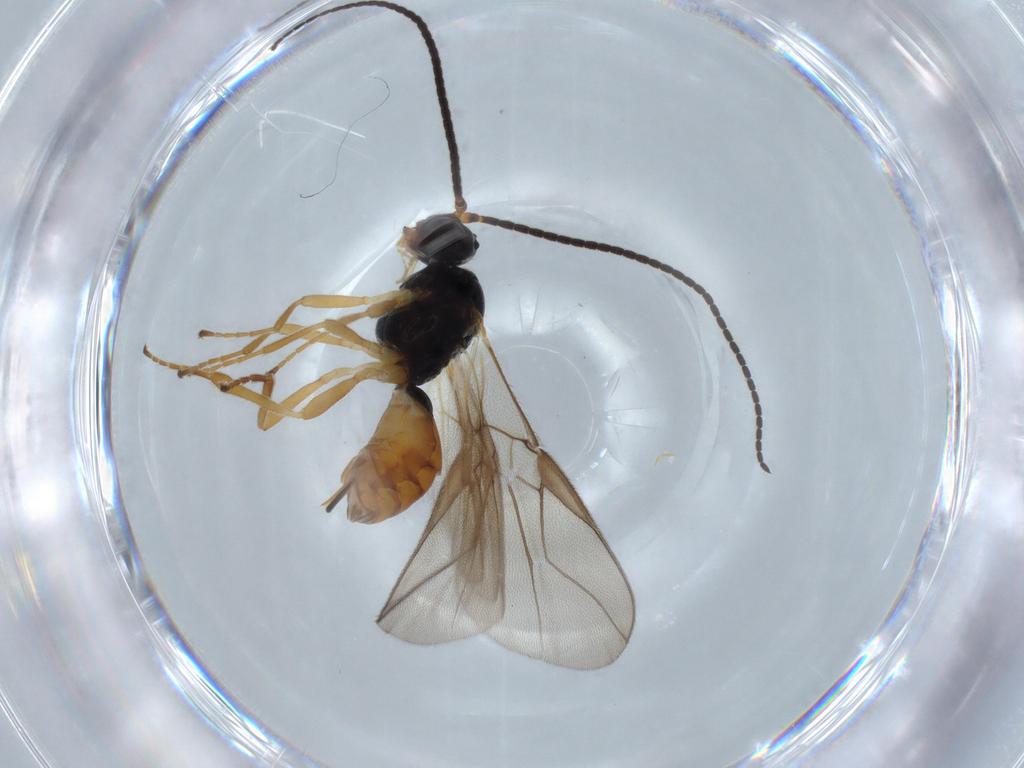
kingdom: Animalia
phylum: Arthropoda
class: Insecta
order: Hymenoptera
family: Braconidae
